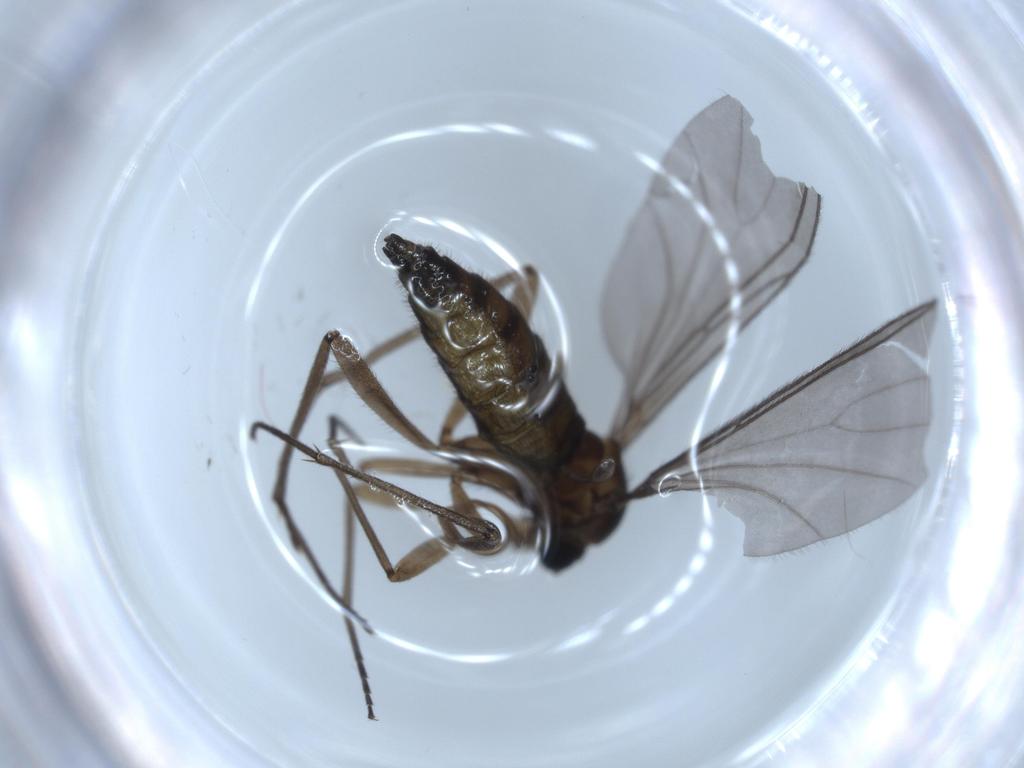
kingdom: Animalia
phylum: Arthropoda
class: Insecta
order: Diptera
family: Sciaridae
